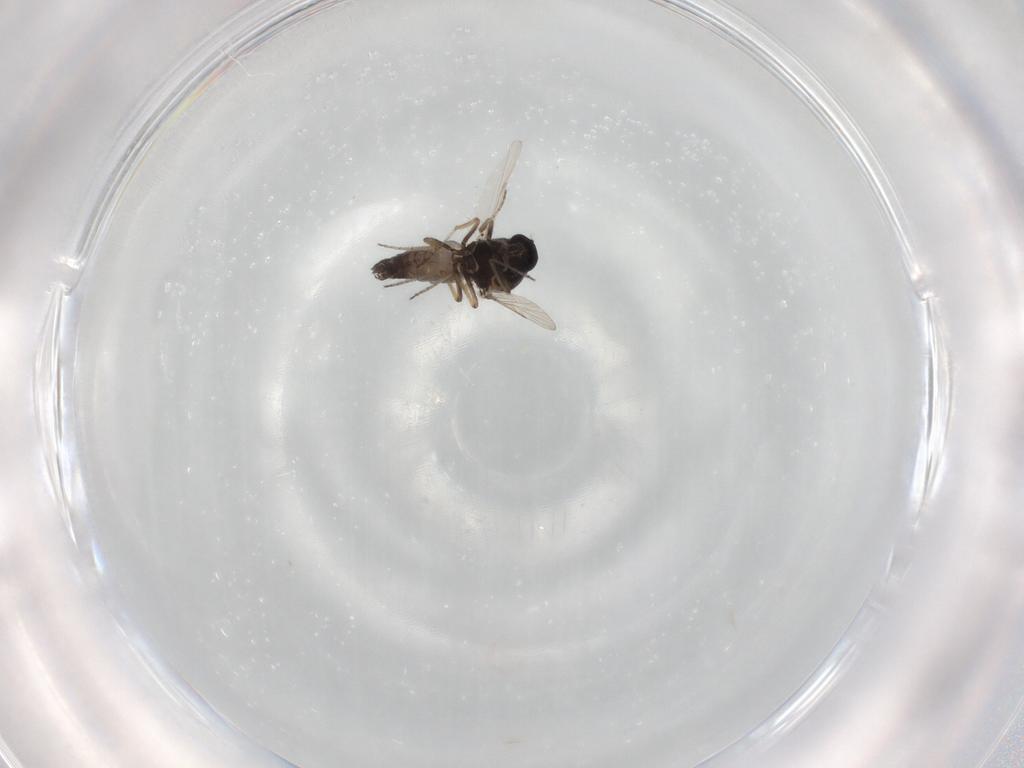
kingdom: Animalia
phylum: Arthropoda
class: Insecta
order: Diptera
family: Ceratopogonidae
